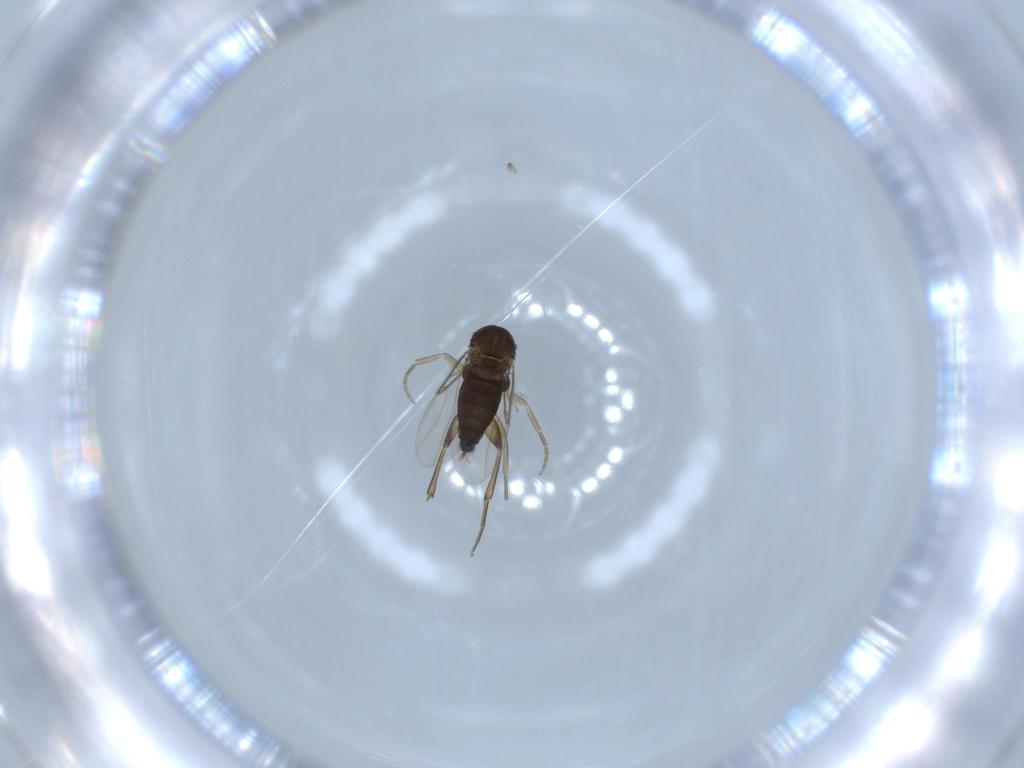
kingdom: Animalia
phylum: Arthropoda
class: Insecta
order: Diptera
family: Phoridae
